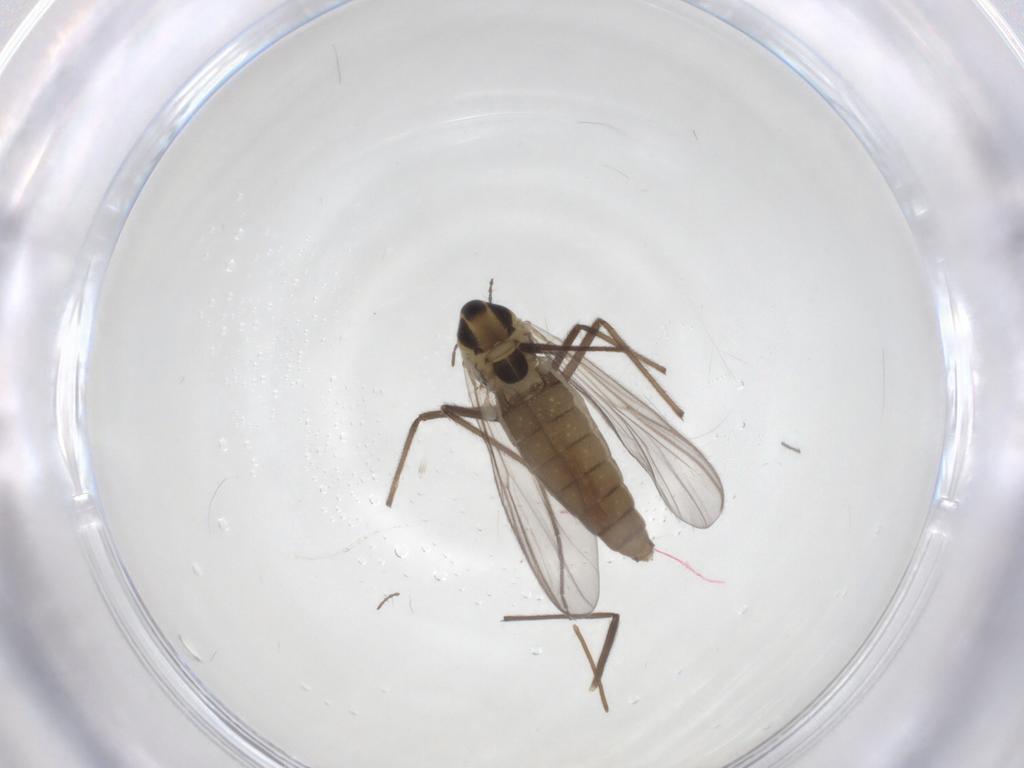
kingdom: Animalia
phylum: Arthropoda
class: Insecta
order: Diptera
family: Chironomidae
